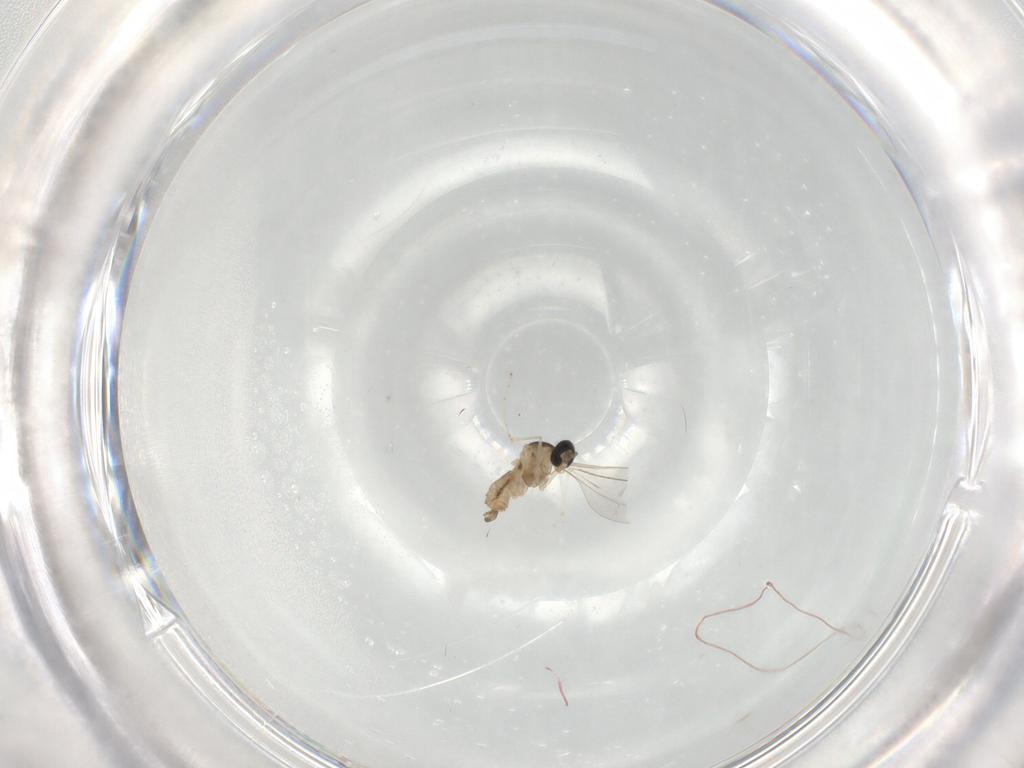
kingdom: Animalia
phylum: Arthropoda
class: Insecta
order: Diptera
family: Cecidomyiidae
